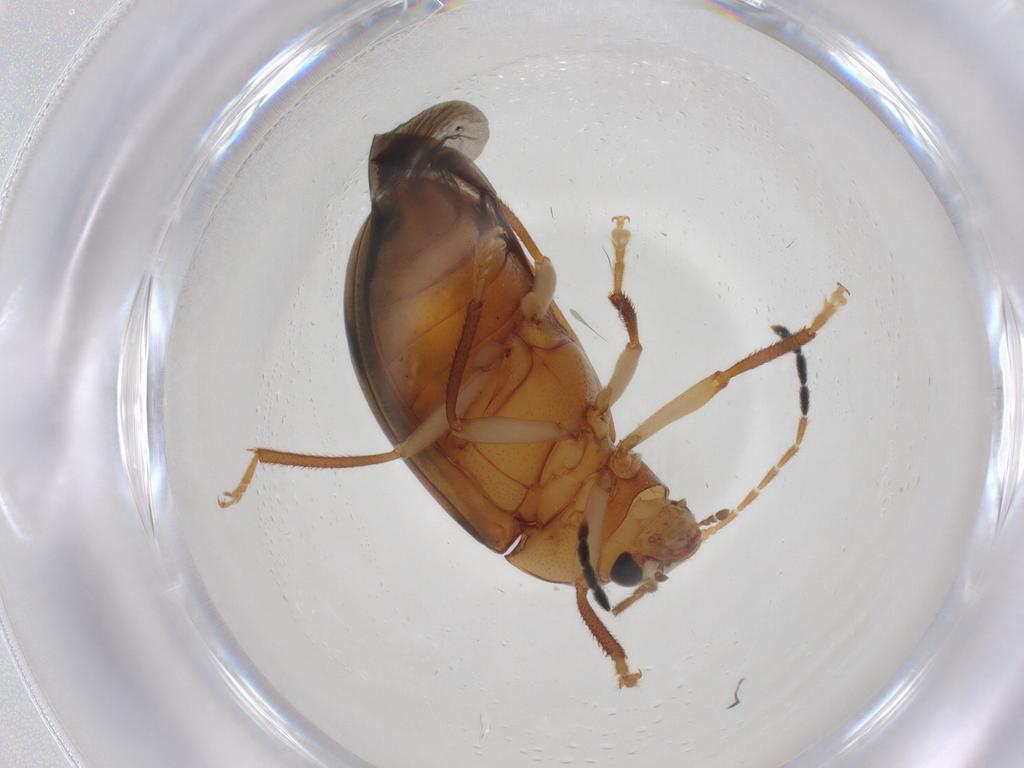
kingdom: Animalia
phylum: Arthropoda
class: Insecta
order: Coleoptera
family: Ptilodactylidae
